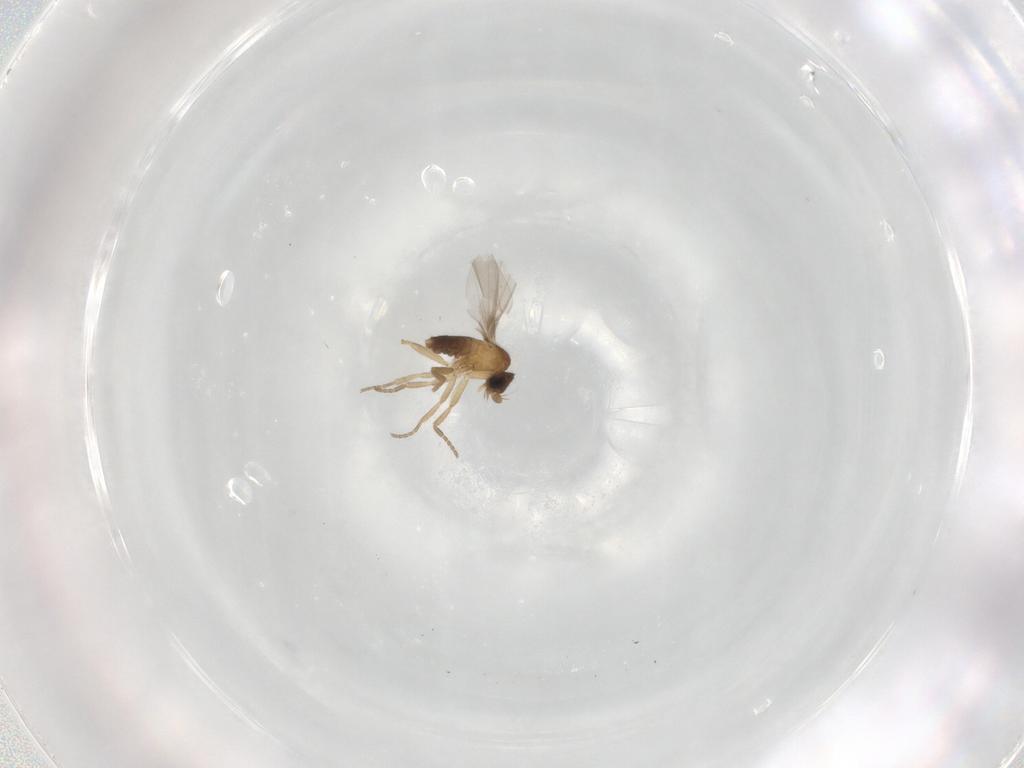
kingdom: Animalia
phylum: Arthropoda
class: Insecta
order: Diptera
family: Phoridae
